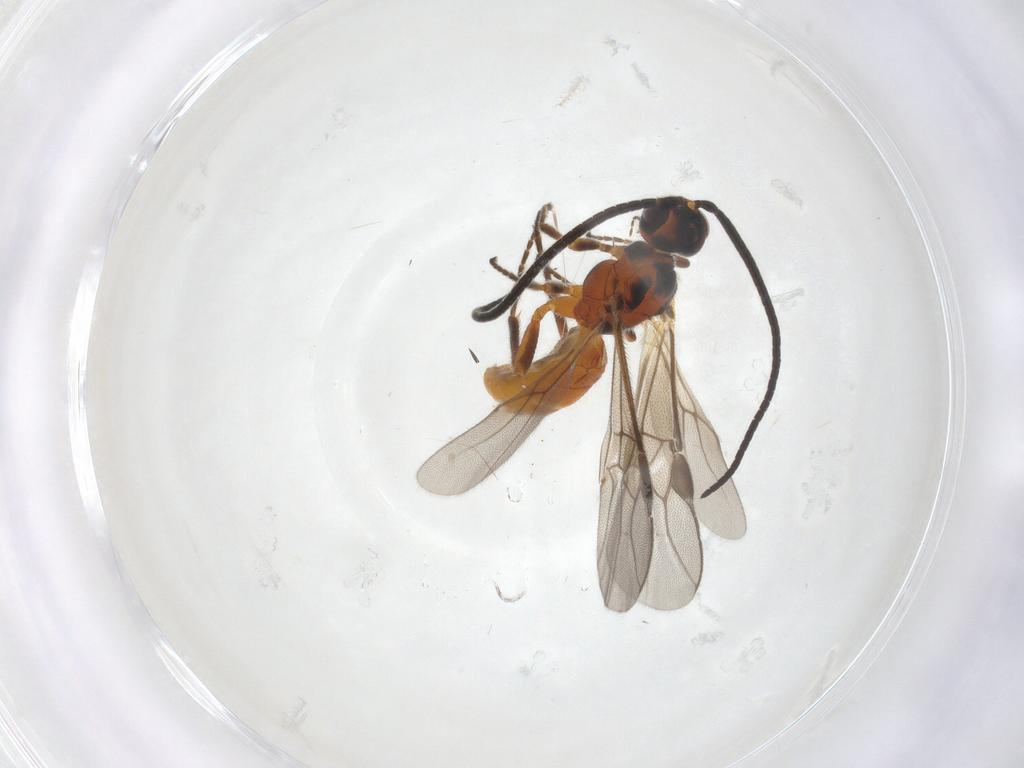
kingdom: Animalia
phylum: Arthropoda
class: Insecta
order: Hymenoptera
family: Braconidae
